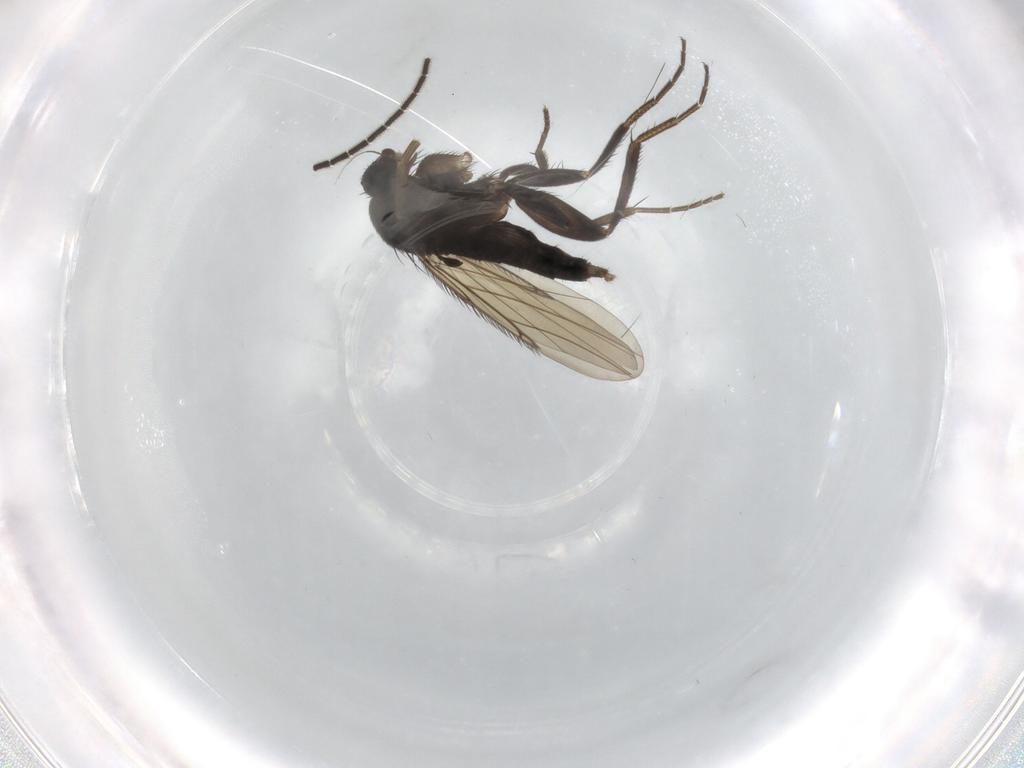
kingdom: Animalia
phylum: Arthropoda
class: Insecta
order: Diptera
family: Phoridae
